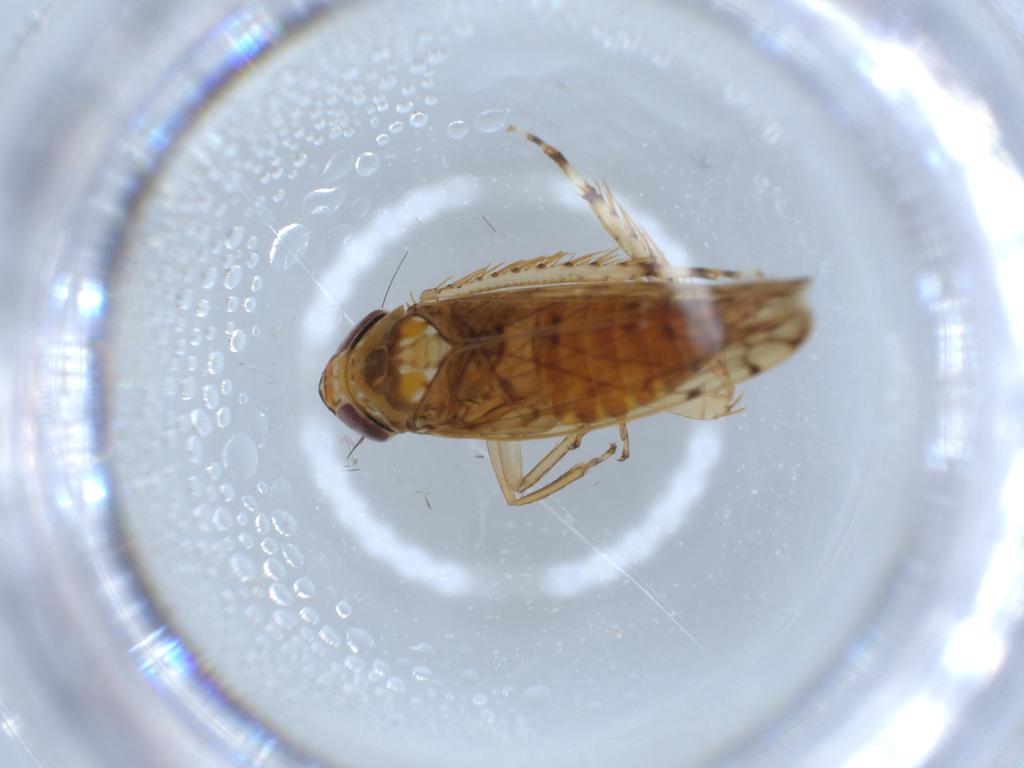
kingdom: Animalia
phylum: Arthropoda
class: Insecta
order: Hemiptera
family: Cicadellidae
